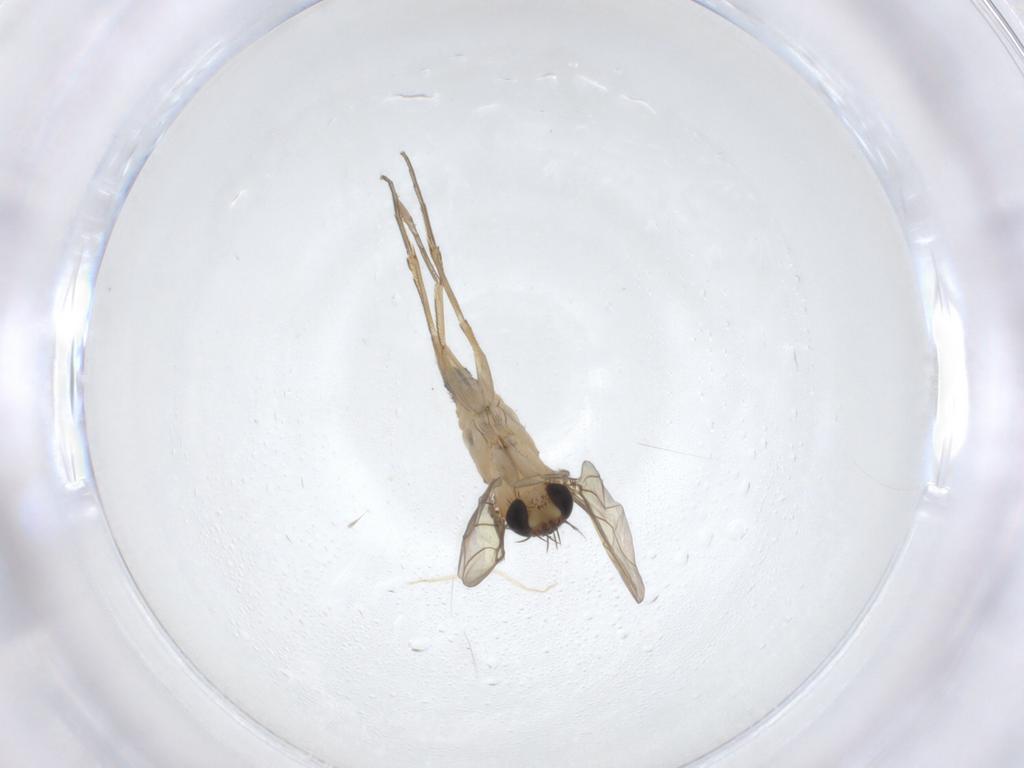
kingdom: Animalia
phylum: Arthropoda
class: Insecta
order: Diptera
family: Phoridae
